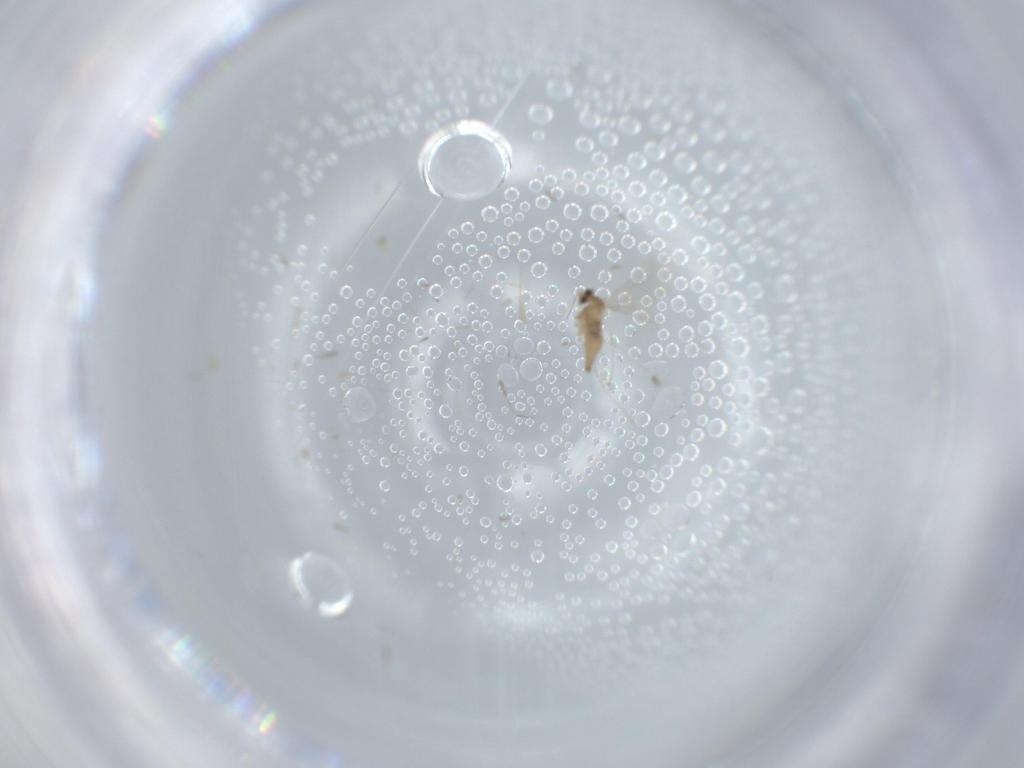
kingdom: Animalia
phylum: Arthropoda
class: Insecta
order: Diptera
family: Cecidomyiidae
